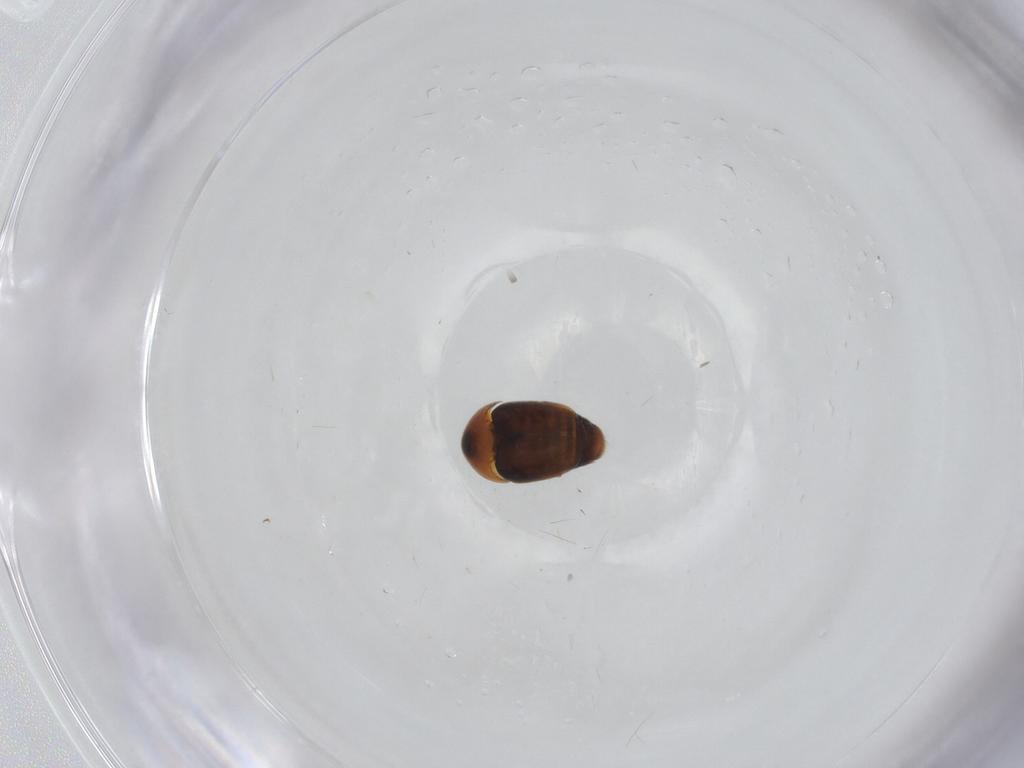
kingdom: Animalia
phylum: Arthropoda
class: Insecta
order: Coleoptera
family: Corylophidae
